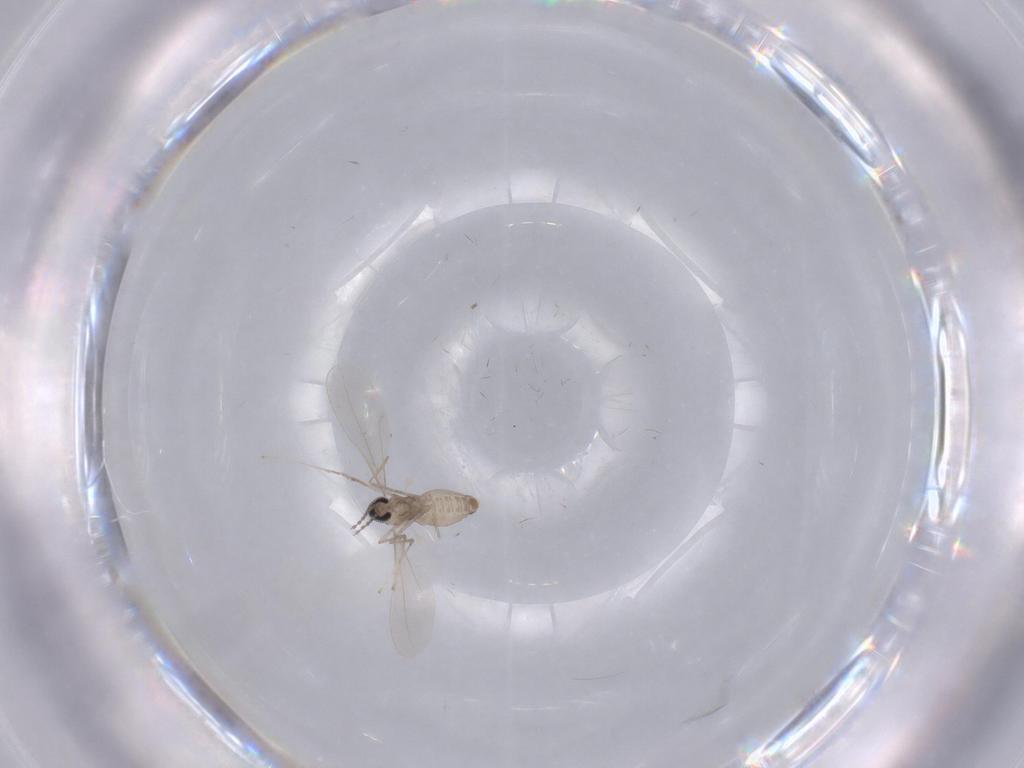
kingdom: Animalia
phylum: Arthropoda
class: Insecta
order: Diptera
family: Cecidomyiidae
